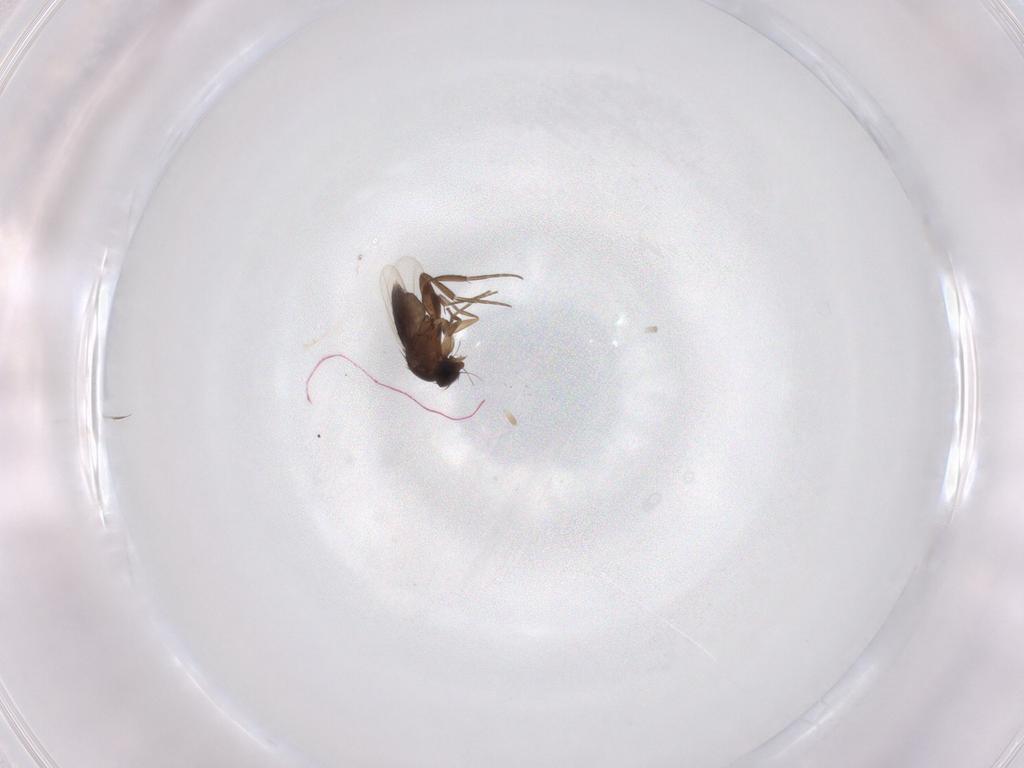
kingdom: Animalia
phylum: Arthropoda
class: Insecta
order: Diptera
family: Phoridae
